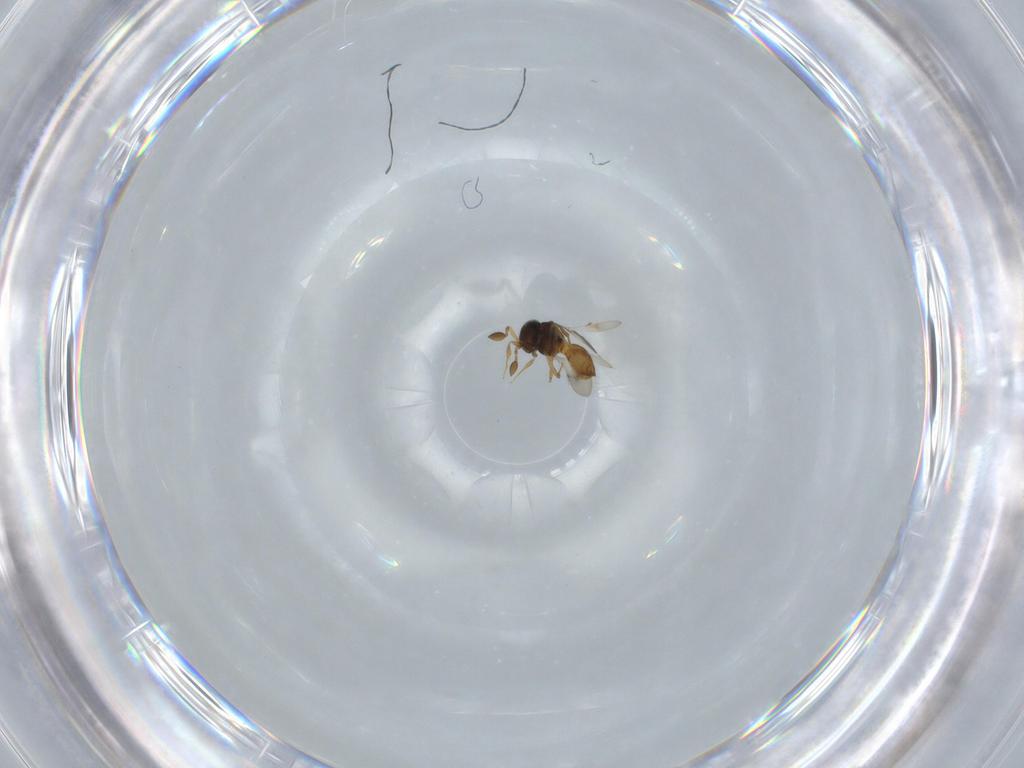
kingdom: Animalia
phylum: Arthropoda
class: Insecta
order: Hymenoptera
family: Scelionidae
